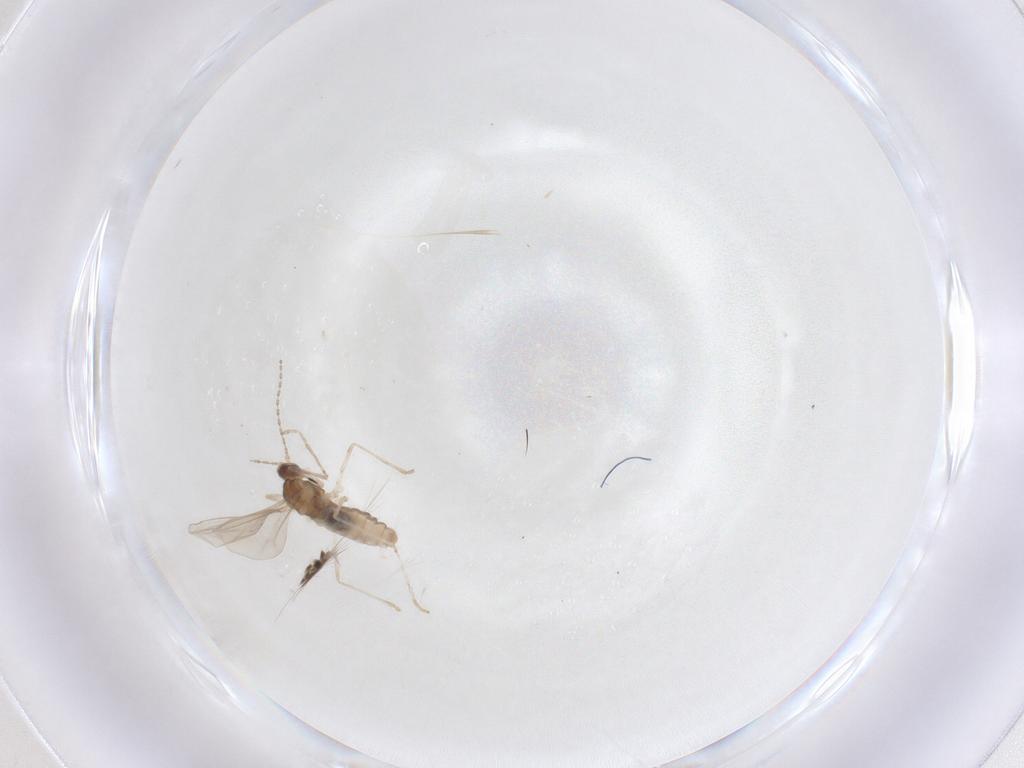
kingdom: Animalia
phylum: Arthropoda
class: Insecta
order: Diptera
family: Cecidomyiidae
